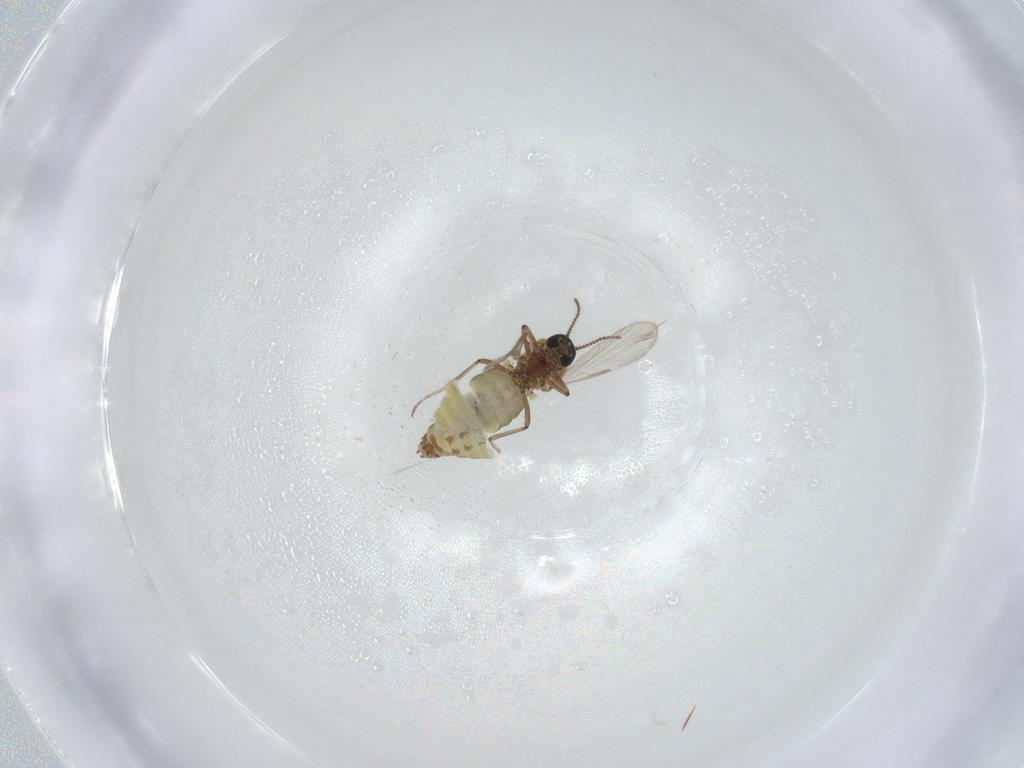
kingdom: Animalia
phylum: Arthropoda
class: Insecta
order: Diptera
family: Ceratopogonidae
